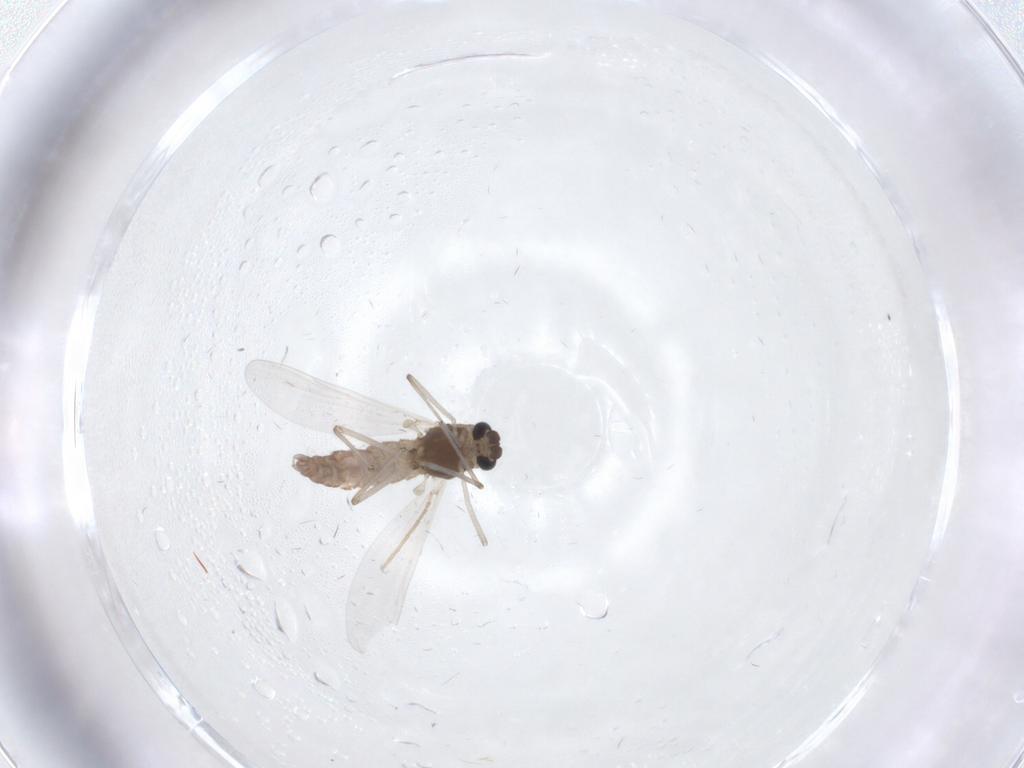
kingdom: Animalia
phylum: Arthropoda
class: Insecta
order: Diptera
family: Chironomidae
